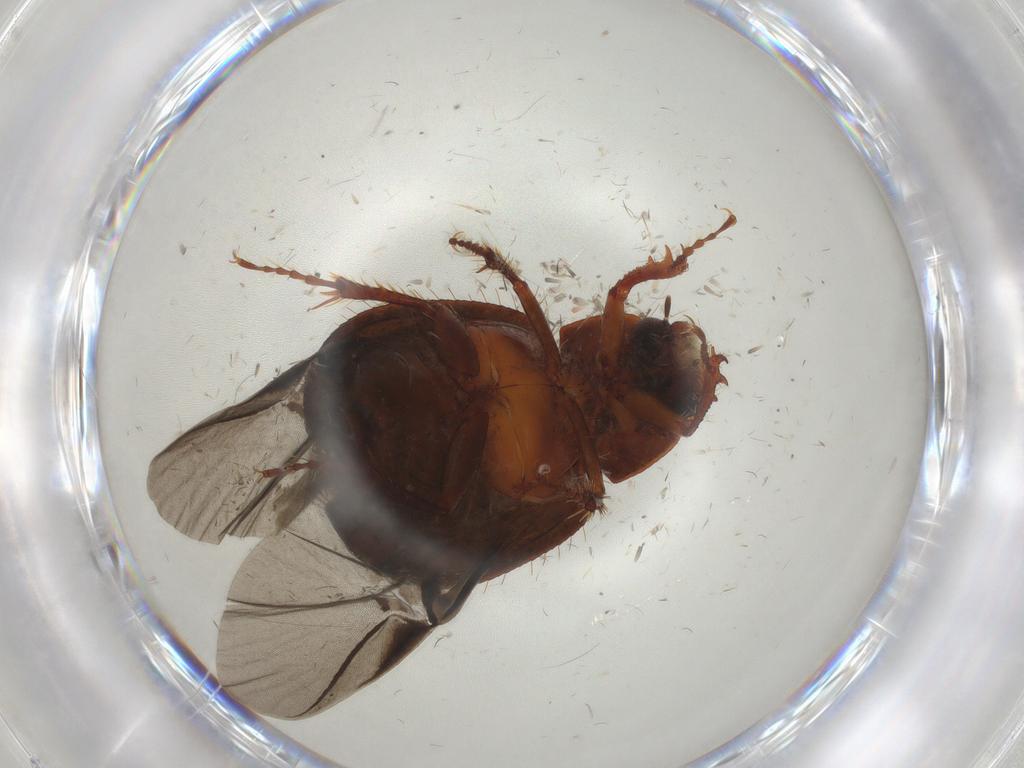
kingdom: Animalia
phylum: Arthropoda
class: Insecta
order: Coleoptera
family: Hybosoridae
